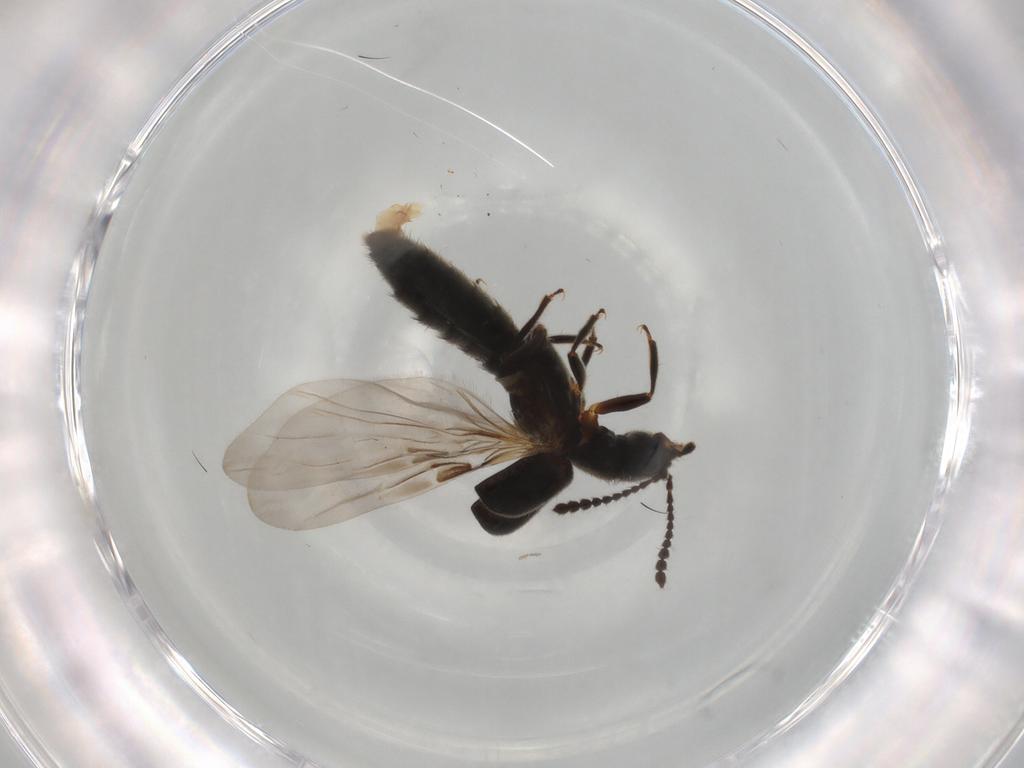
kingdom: Animalia
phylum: Arthropoda
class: Insecta
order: Coleoptera
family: Staphylinidae
